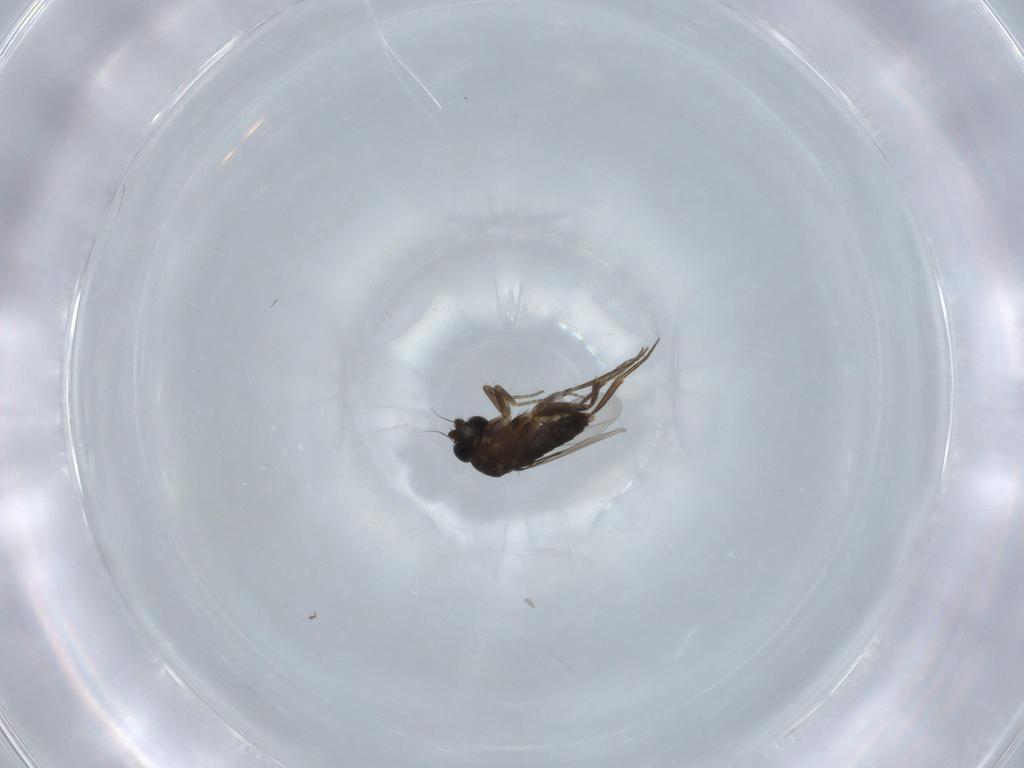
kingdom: Animalia
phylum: Arthropoda
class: Insecta
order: Diptera
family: Phoridae
